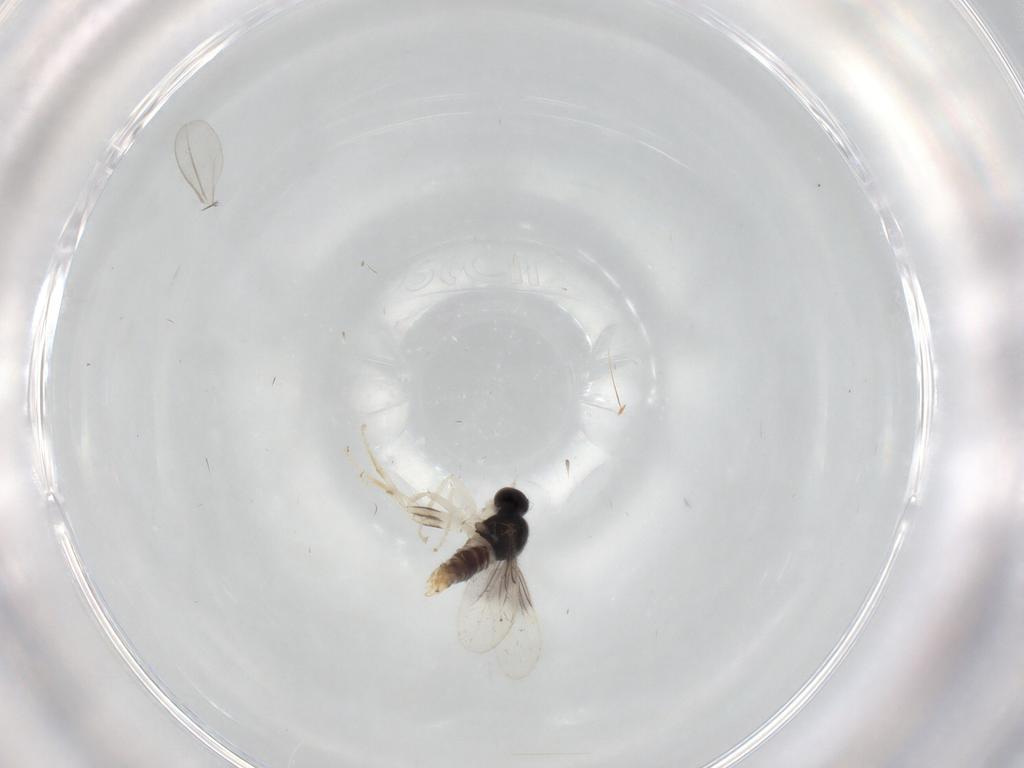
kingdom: Animalia
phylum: Arthropoda
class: Insecta
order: Diptera
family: Hybotidae
